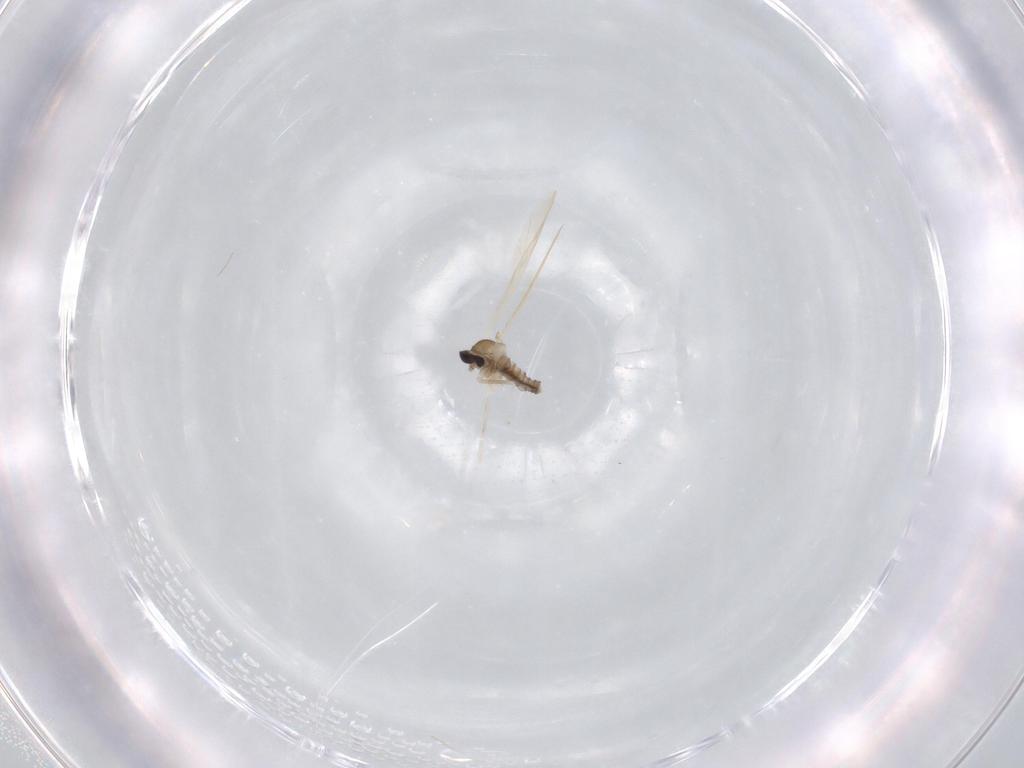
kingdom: Animalia
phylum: Arthropoda
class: Insecta
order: Diptera
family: Cecidomyiidae
